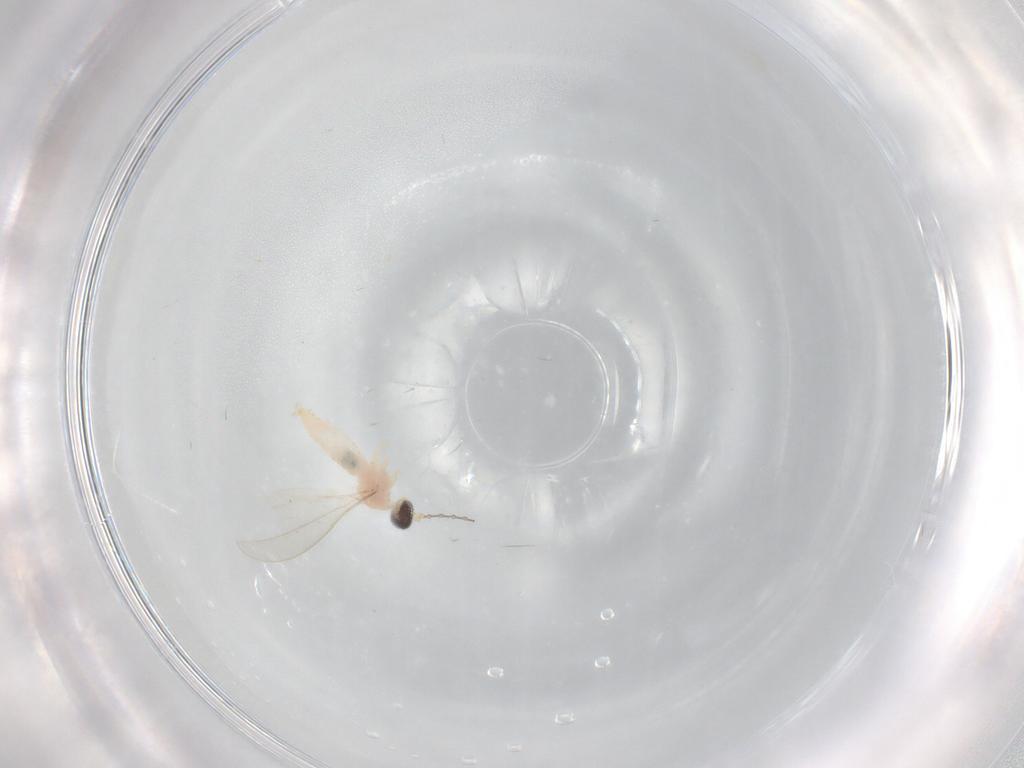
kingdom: Animalia
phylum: Arthropoda
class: Insecta
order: Diptera
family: Cecidomyiidae
